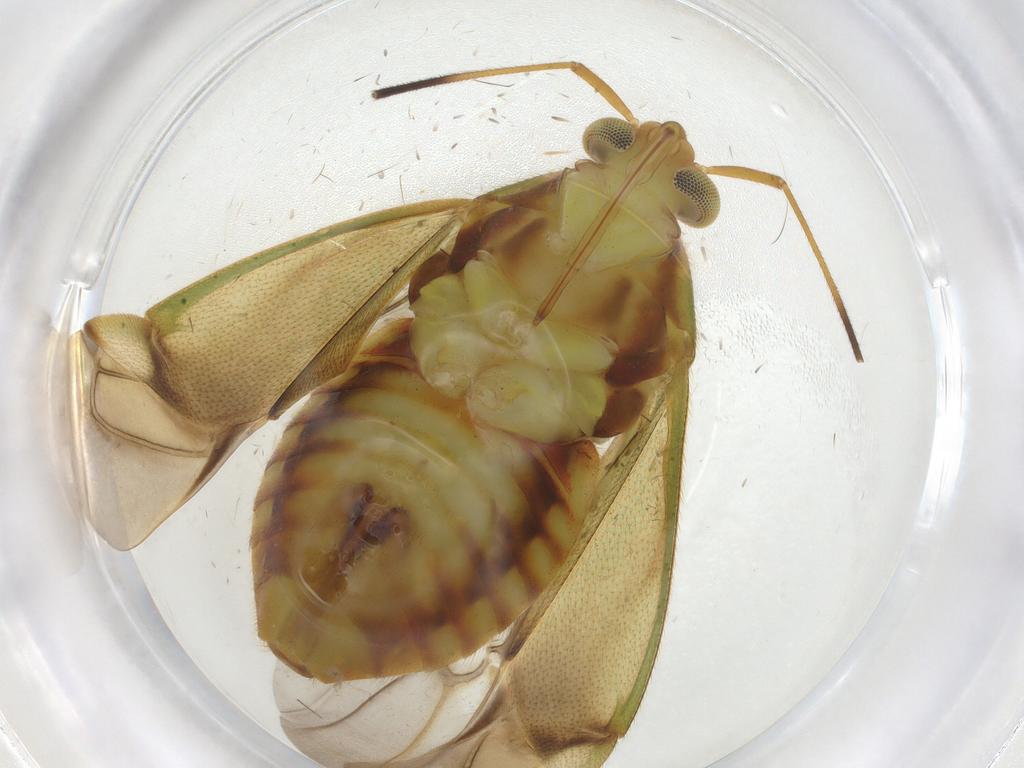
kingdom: Animalia
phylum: Arthropoda
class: Insecta
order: Hemiptera
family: Miridae
